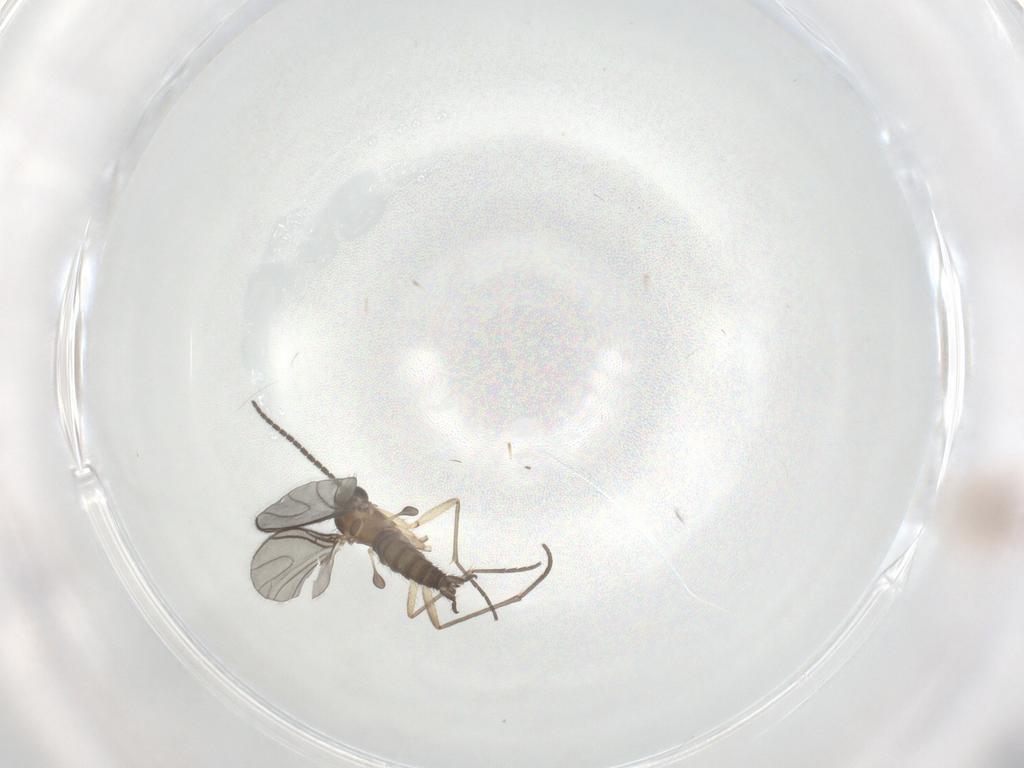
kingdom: Animalia
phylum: Arthropoda
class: Insecta
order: Diptera
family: Sciaridae
